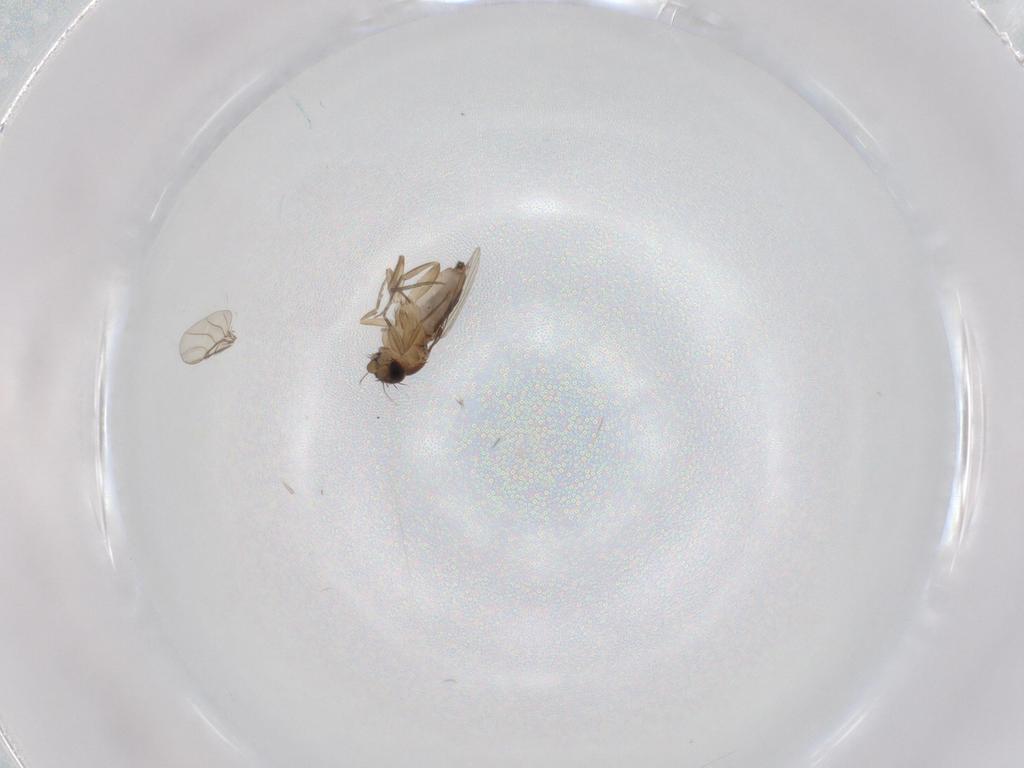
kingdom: Animalia
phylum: Arthropoda
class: Insecta
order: Diptera
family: Phoridae
